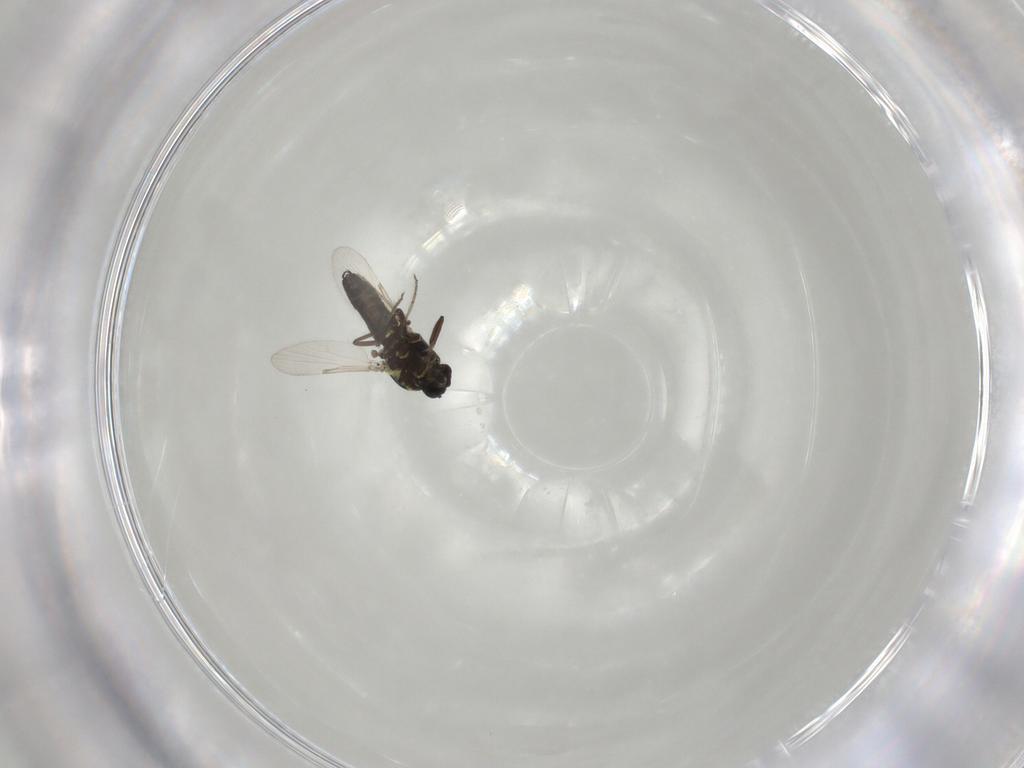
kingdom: Animalia
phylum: Arthropoda
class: Insecta
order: Diptera
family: Ceratopogonidae
